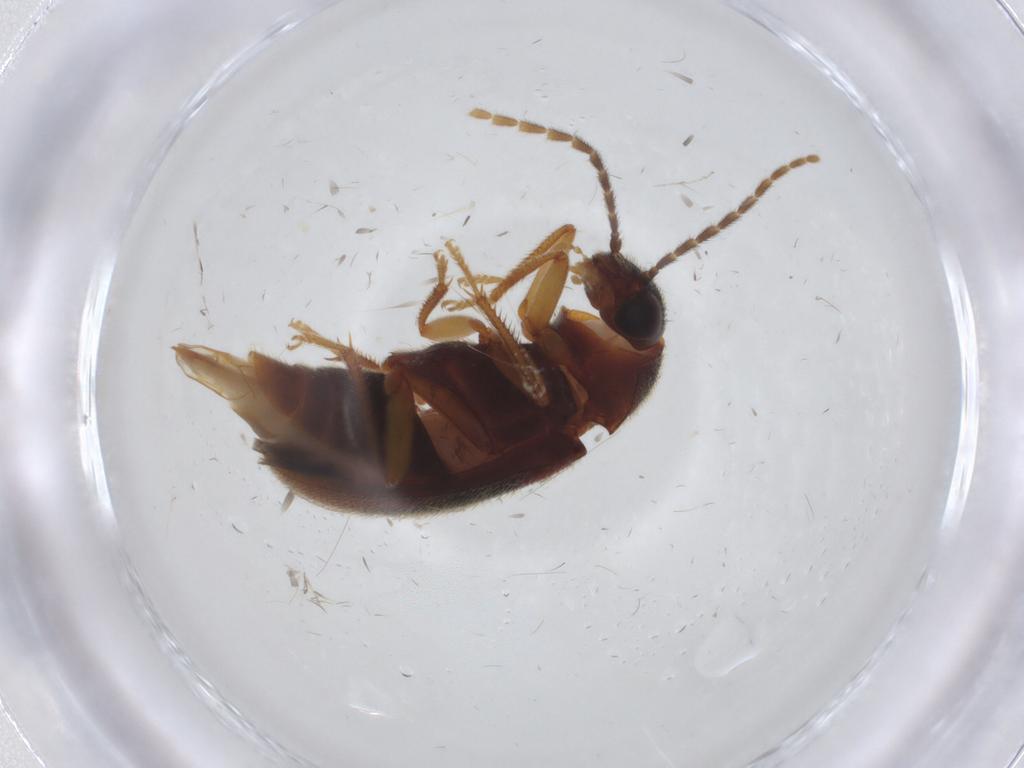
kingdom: Animalia
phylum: Arthropoda
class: Insecta
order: Coleoptera
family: Ptilodactylidae
